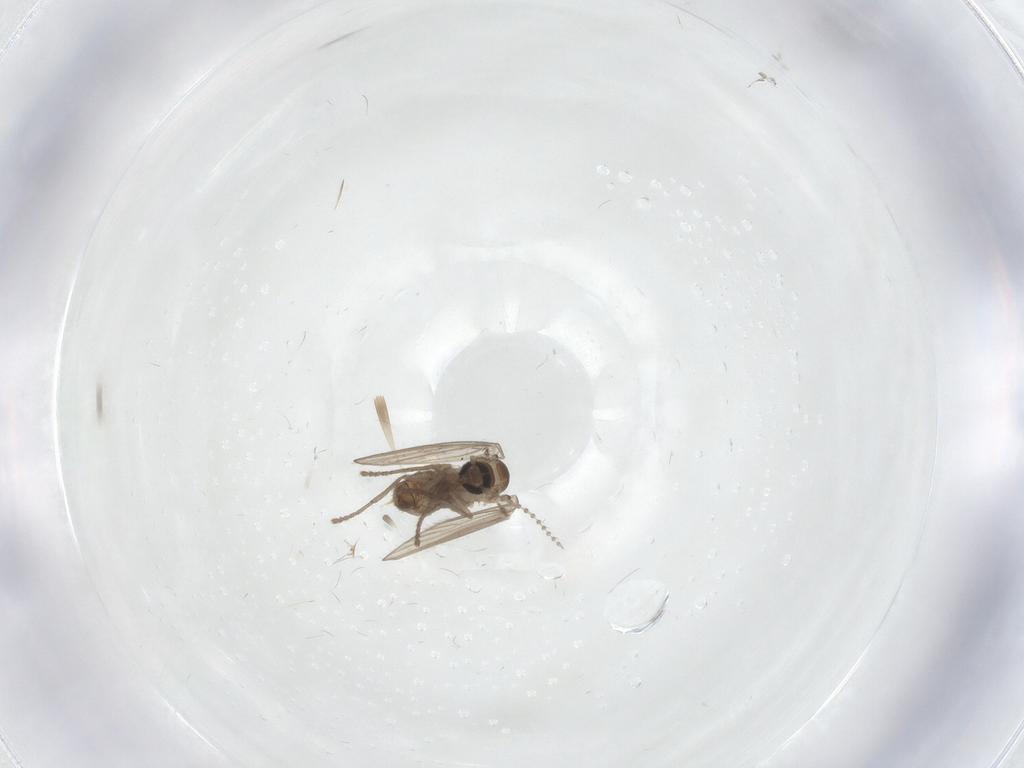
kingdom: Animalia
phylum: Arthropoda
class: Insecta
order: Diptera
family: Psychodidae
